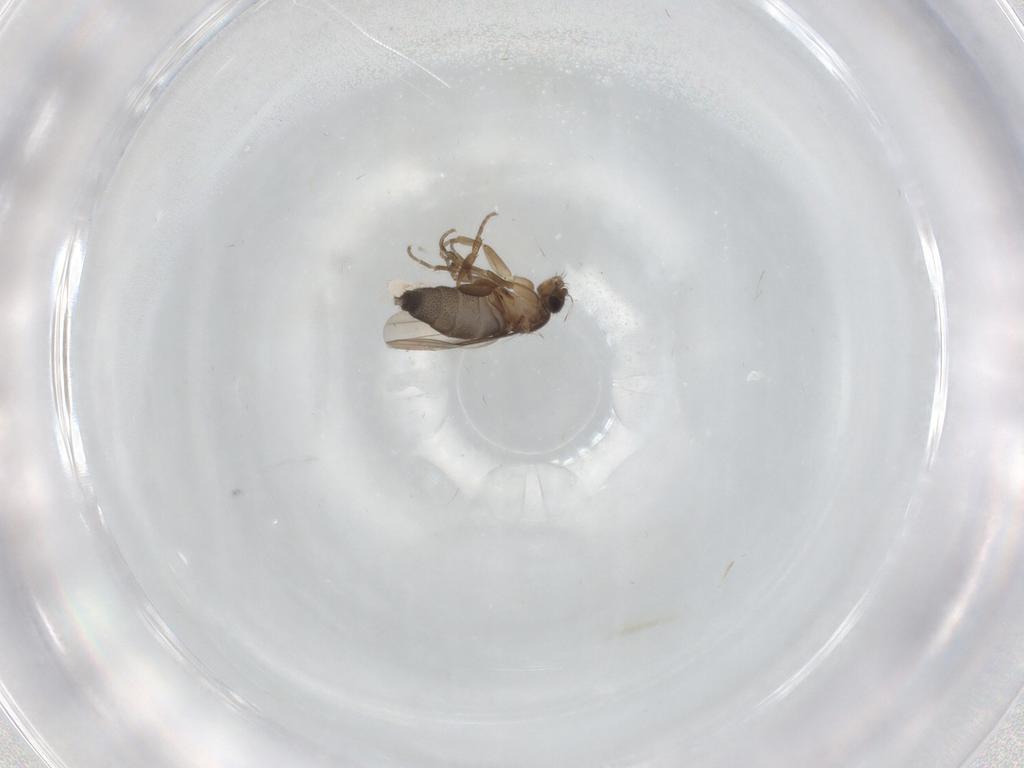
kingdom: Animalia
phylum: Arthropoda
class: Insecta
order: Diptera
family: Phoridae
